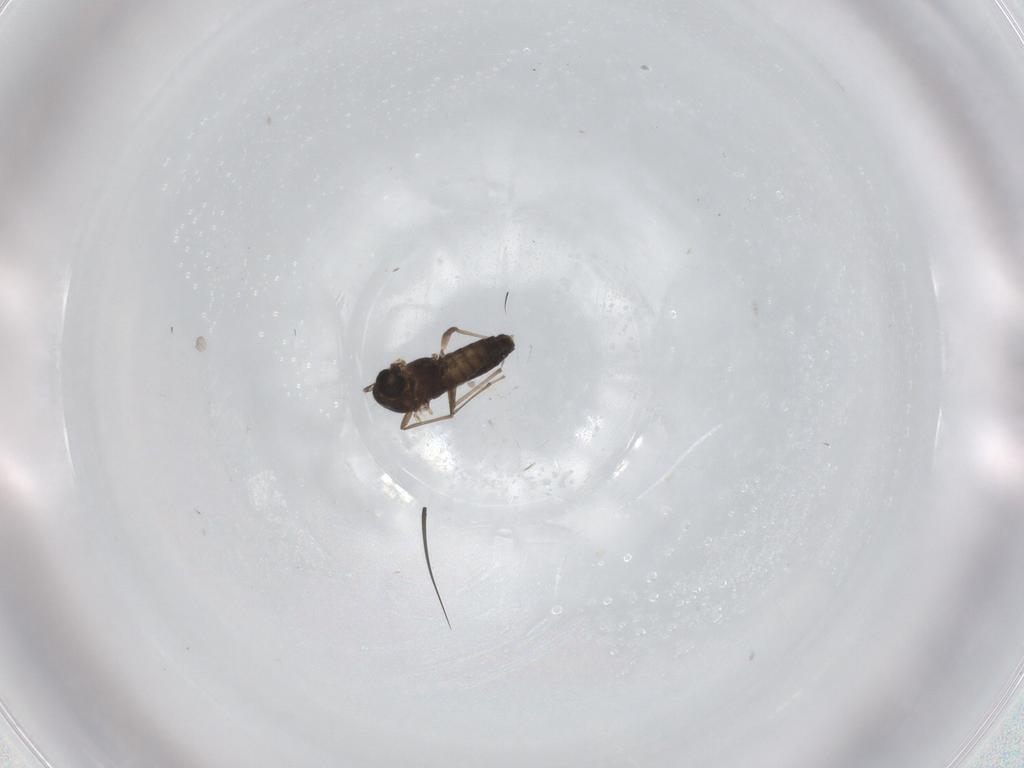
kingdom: Animalia
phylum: Arthropoda
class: Insecta
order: Diptera
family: Chironomidae
